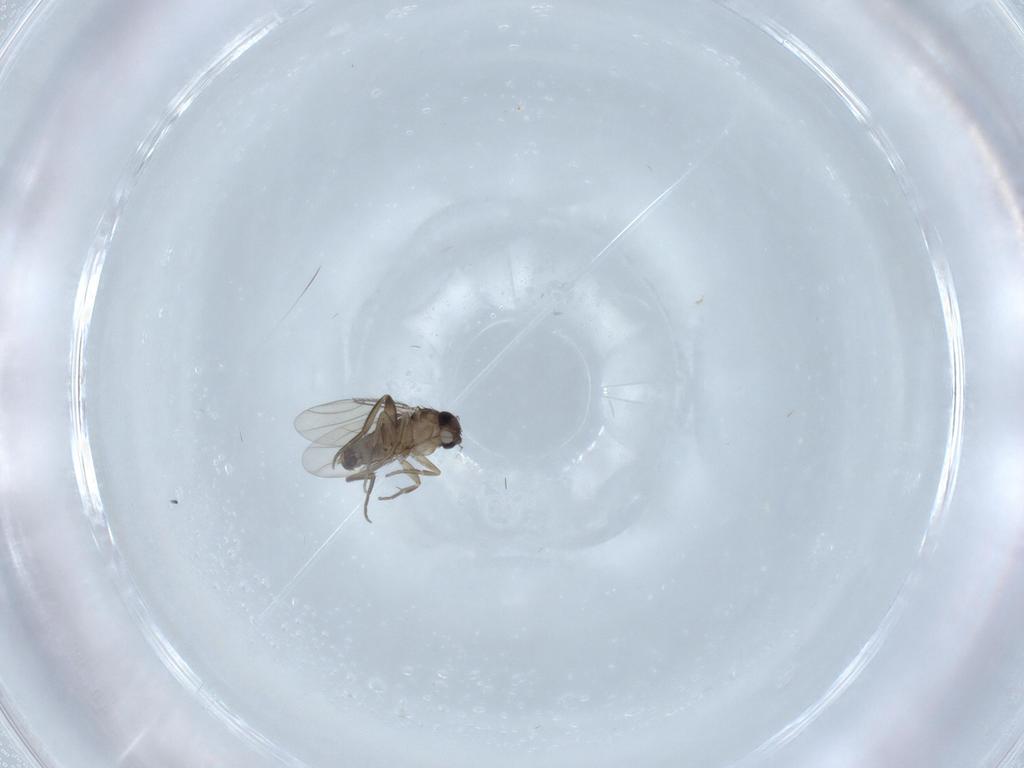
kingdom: Animalia
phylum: Arthropoda
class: Insecta
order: Diptera
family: Phoridae
